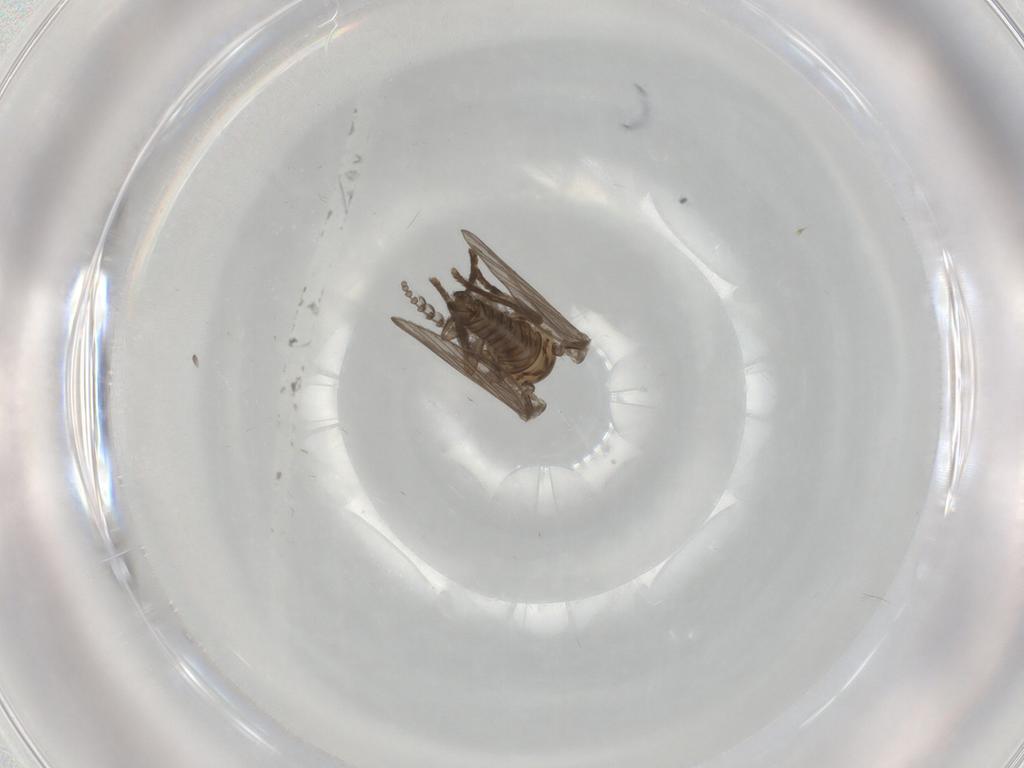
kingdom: Animalia
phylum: Arthropoda
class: Insecta
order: Diptera
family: Psychodidae
